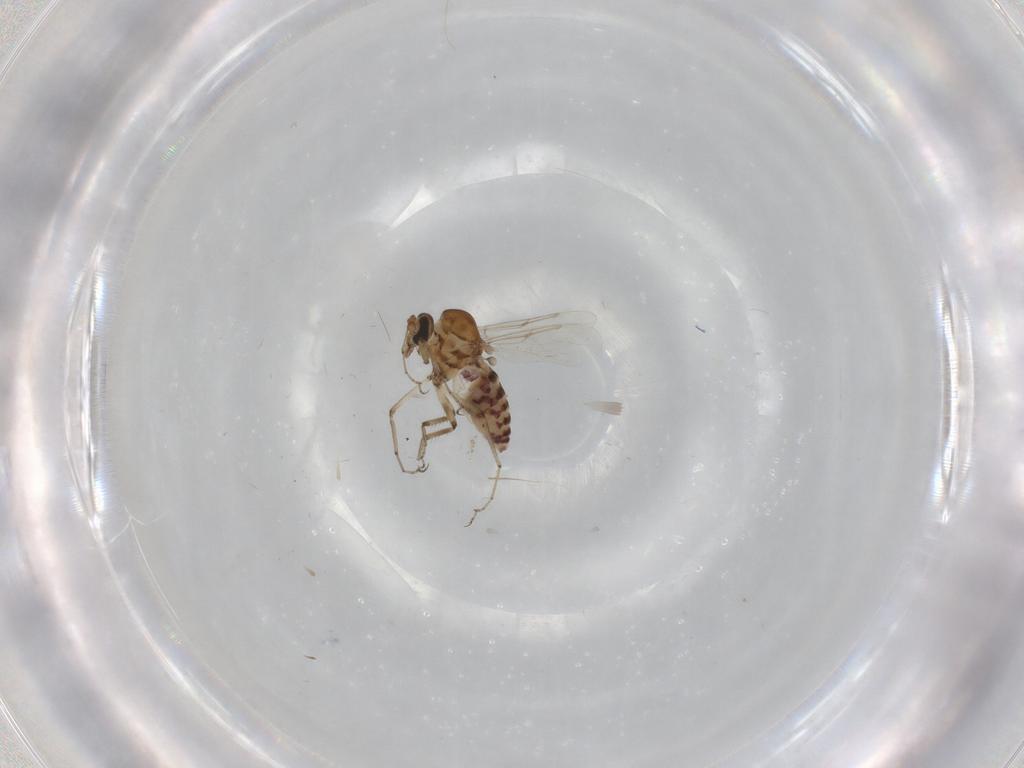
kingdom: Animalia
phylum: Arthropoda
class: Insecta
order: Diptera
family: Ceratopogonidae
